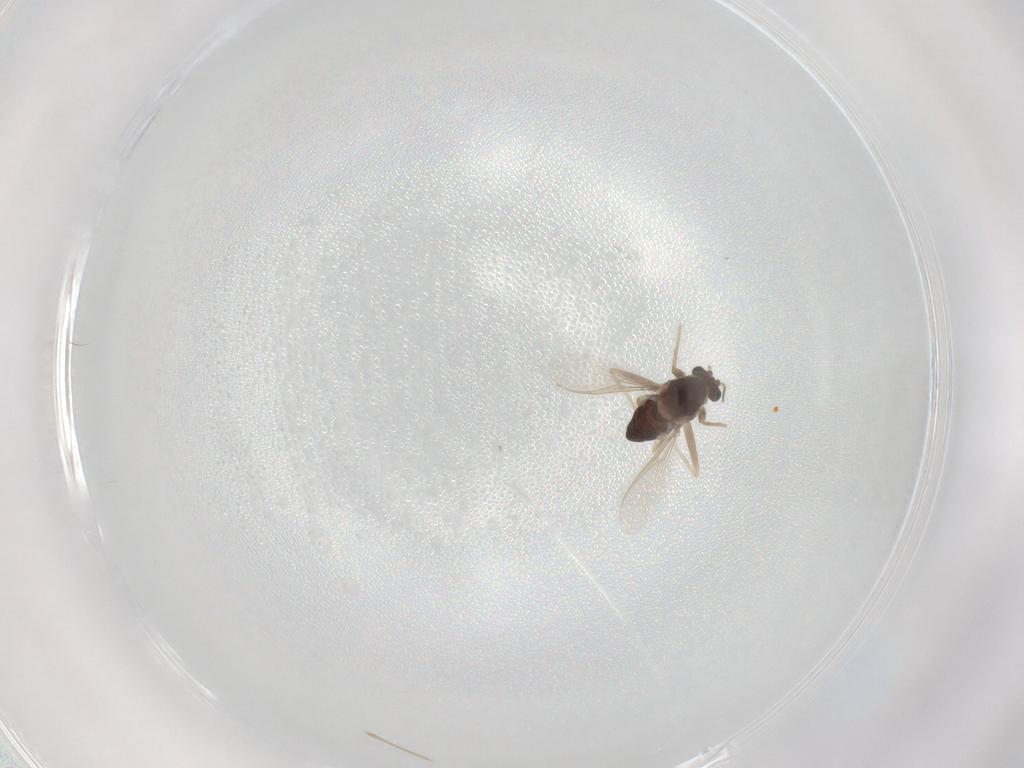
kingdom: Animalia
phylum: Arthropoda
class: Insecta
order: Diptera
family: Chironomidae
